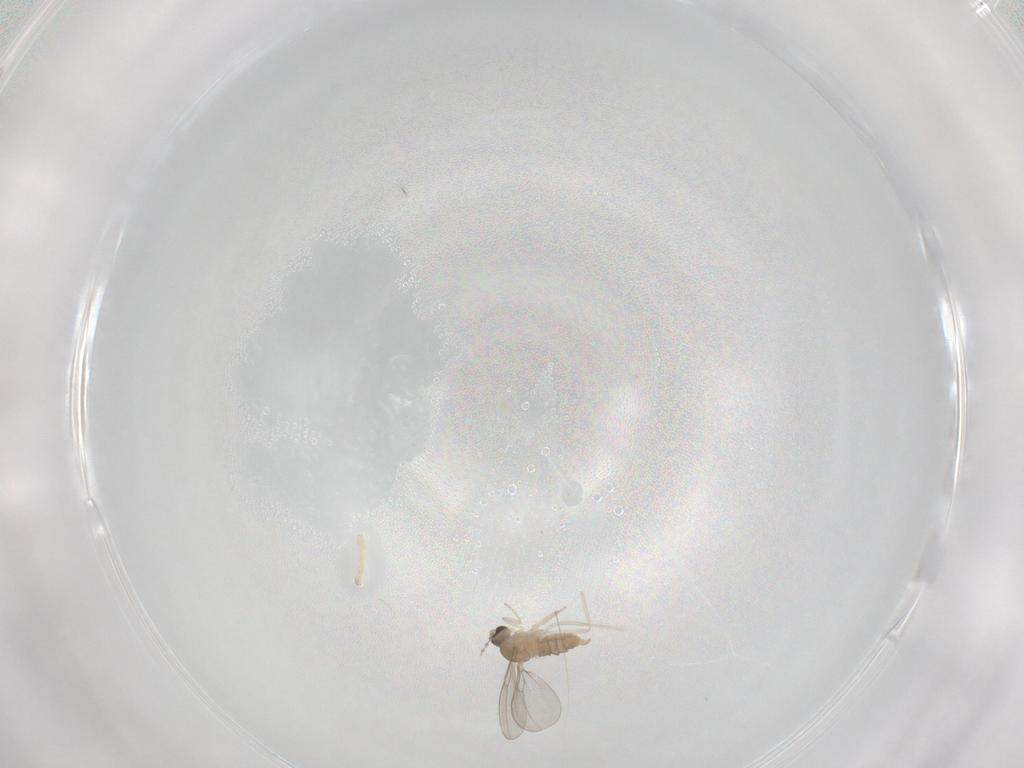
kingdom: Animalia
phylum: Arthropoda
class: Insecta
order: Diptera
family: Cecidomyiidae
